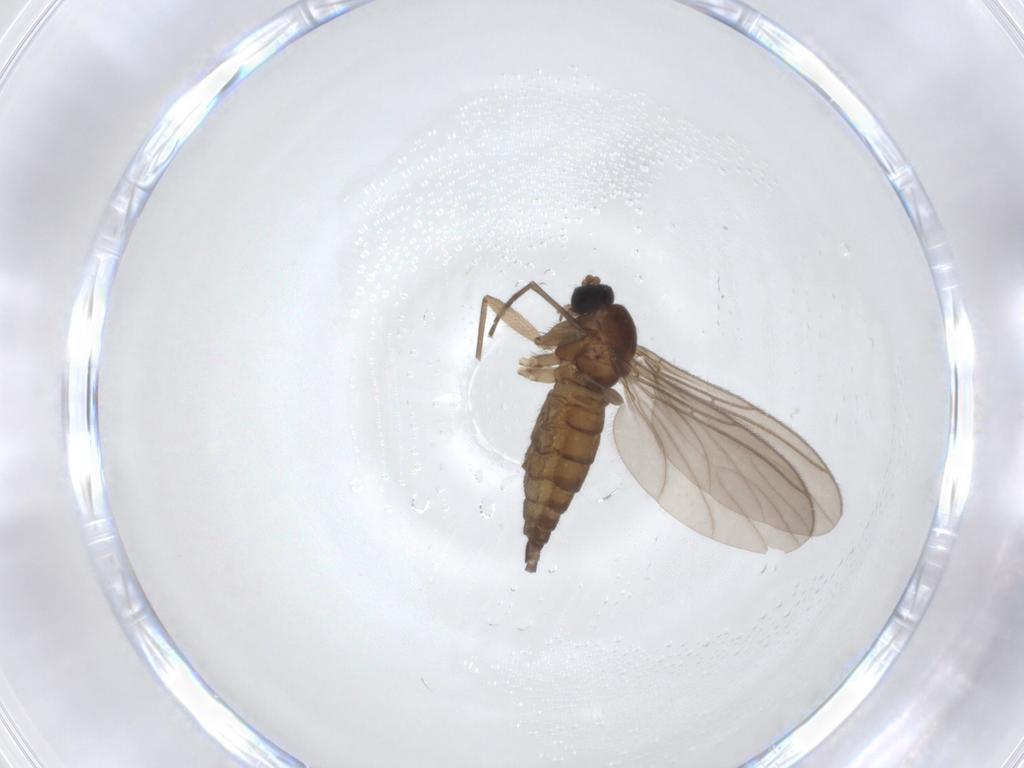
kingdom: Animalia
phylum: Arthropoda
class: Insecta
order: Diptera
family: Sciaridae
